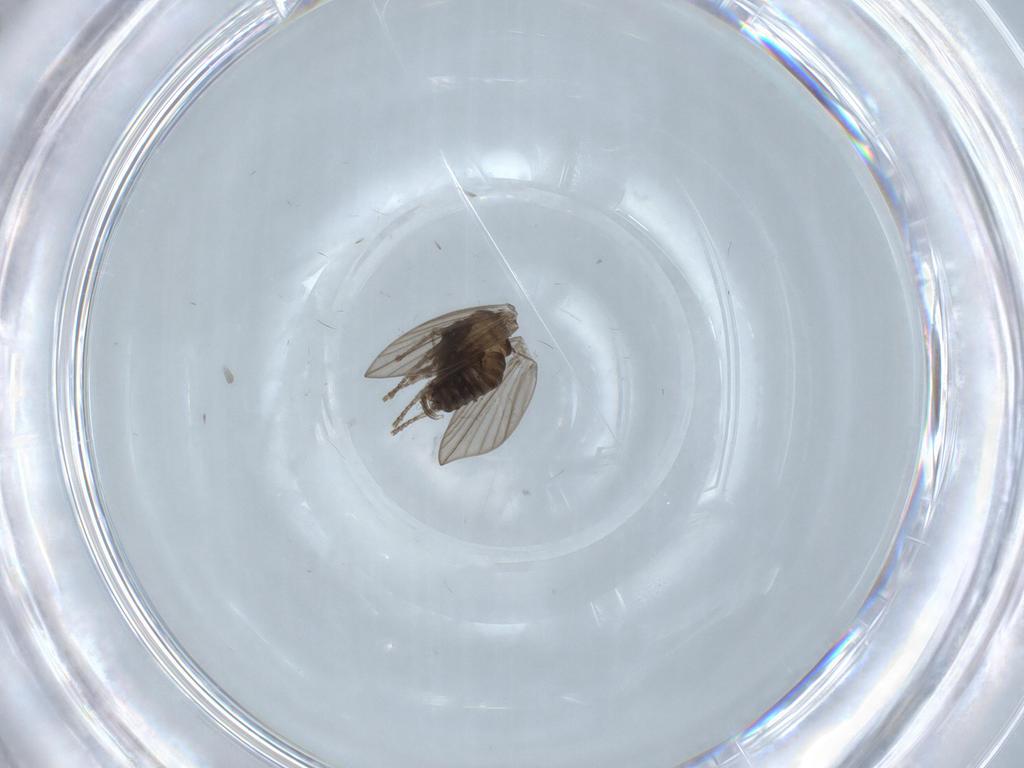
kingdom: Animalia
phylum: Arthropoda
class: Insecta
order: Diptera
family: Psychodidae
